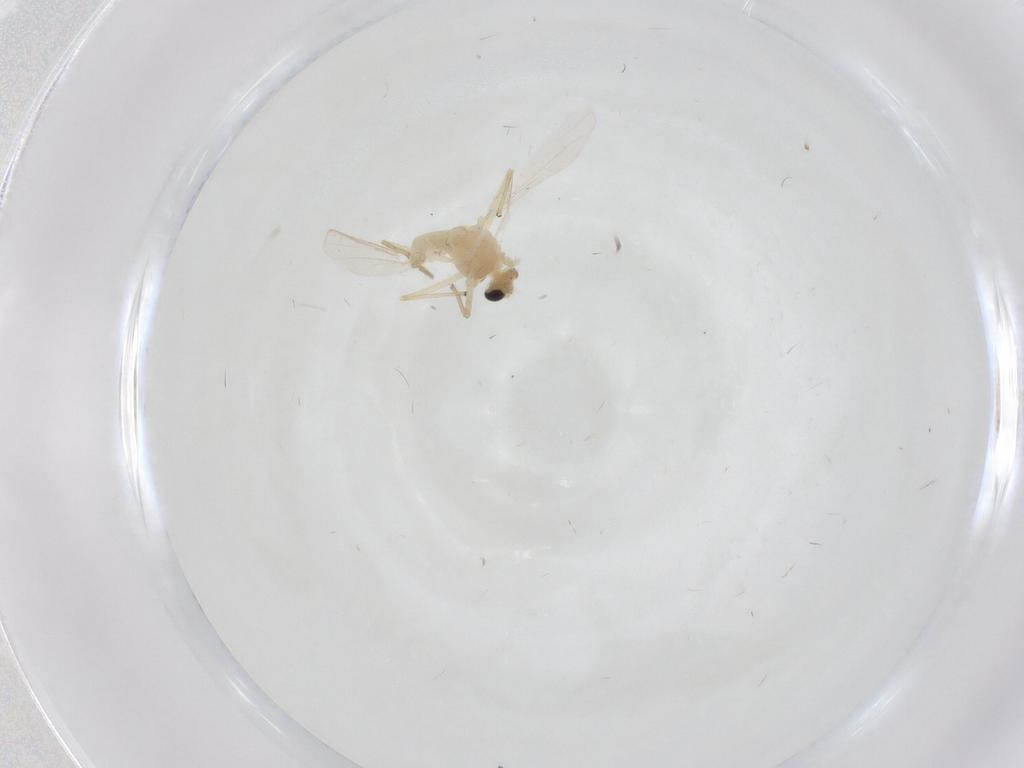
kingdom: Animalia
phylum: Arthropoda
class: Insecta
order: Diptera
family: Chironomidae
